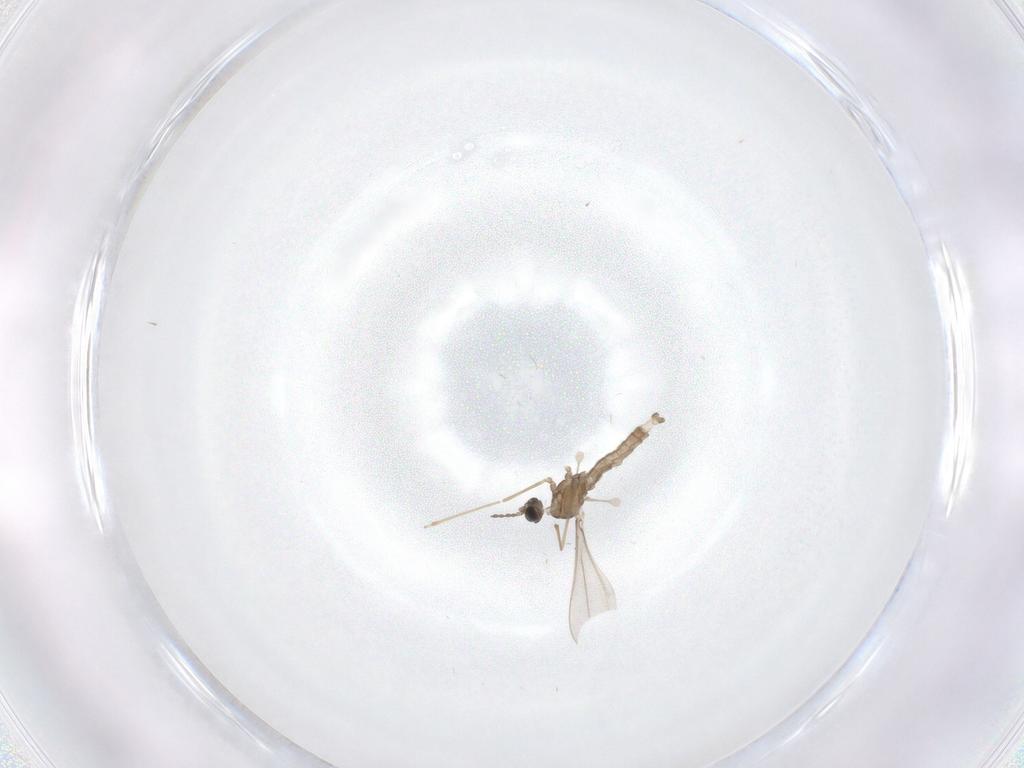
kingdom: Animalia
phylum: Arthropoda
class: Insecta
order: Diptera
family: Cecidomyiidae
